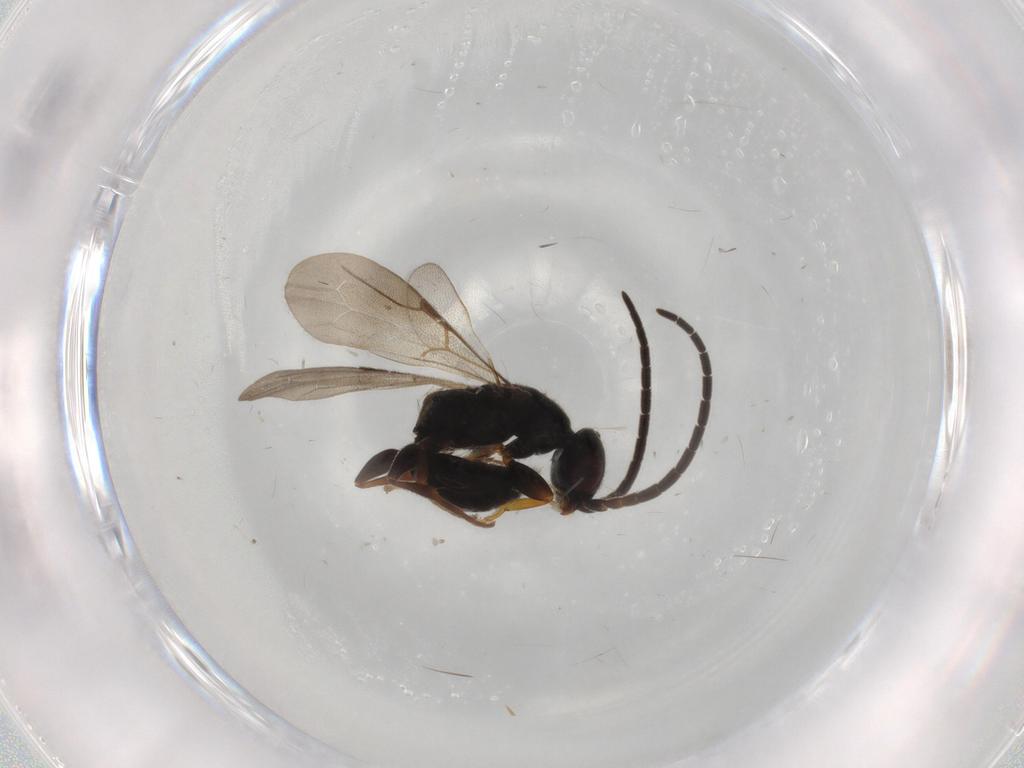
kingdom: Animalia
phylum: Arthropoda
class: Insecta
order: Hymenoptera
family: Bethylidae
